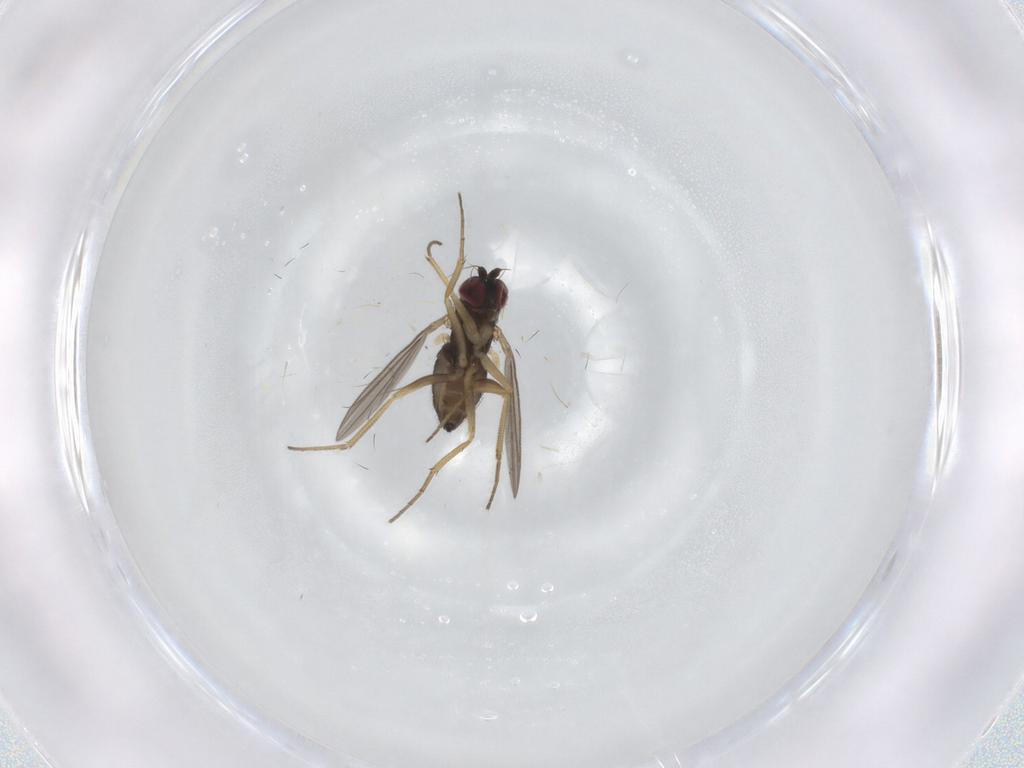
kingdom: Animalia
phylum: Arthropoda
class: Insecta
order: Diptera
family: Dolichopodidae
